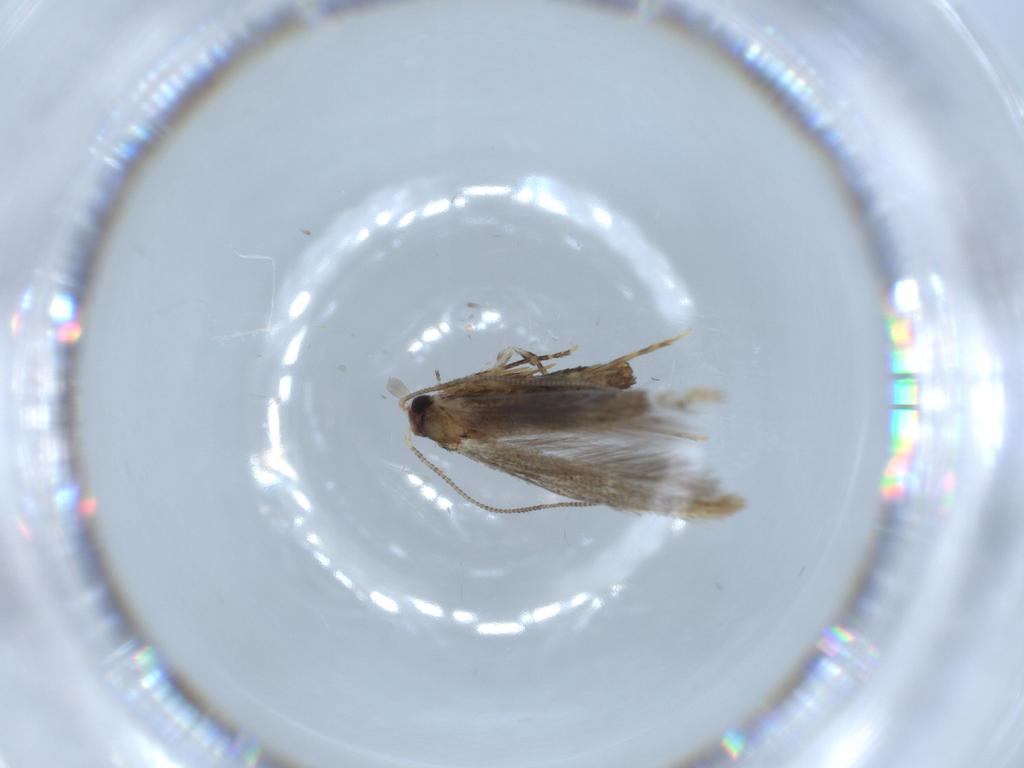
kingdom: Animalia
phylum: Arthropoda
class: Insecta
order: Lepidoptera
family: Tineidae
